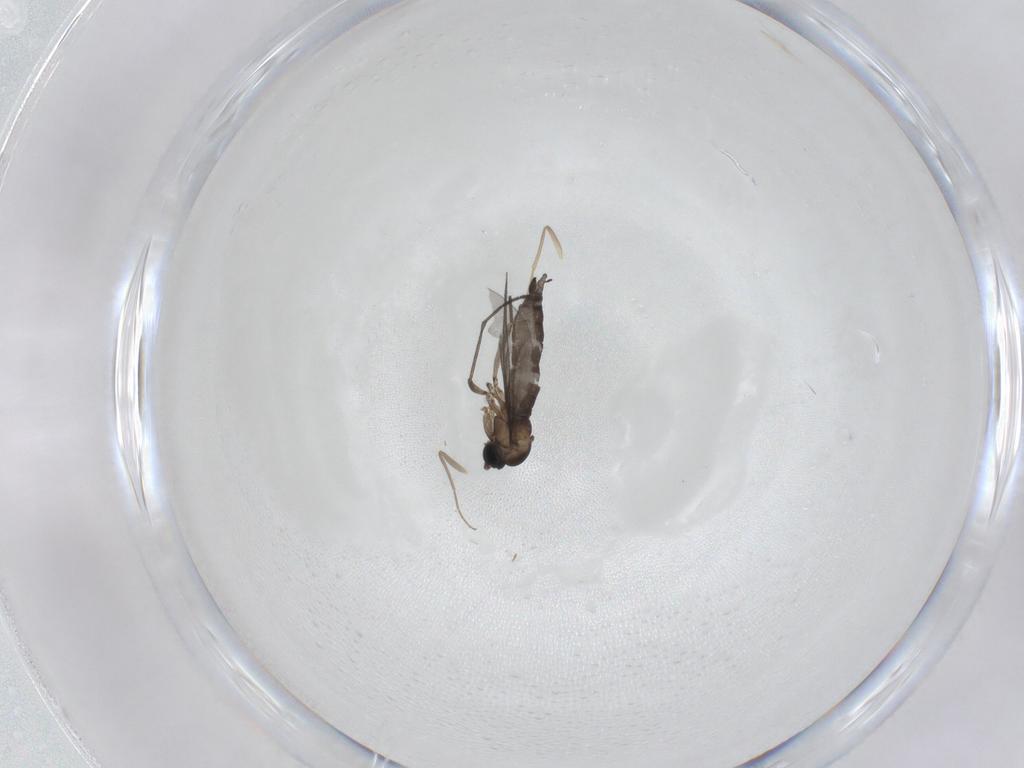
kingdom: Animalia
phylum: Arthropoda
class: Insecta
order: Diptera
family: Sciaridae
